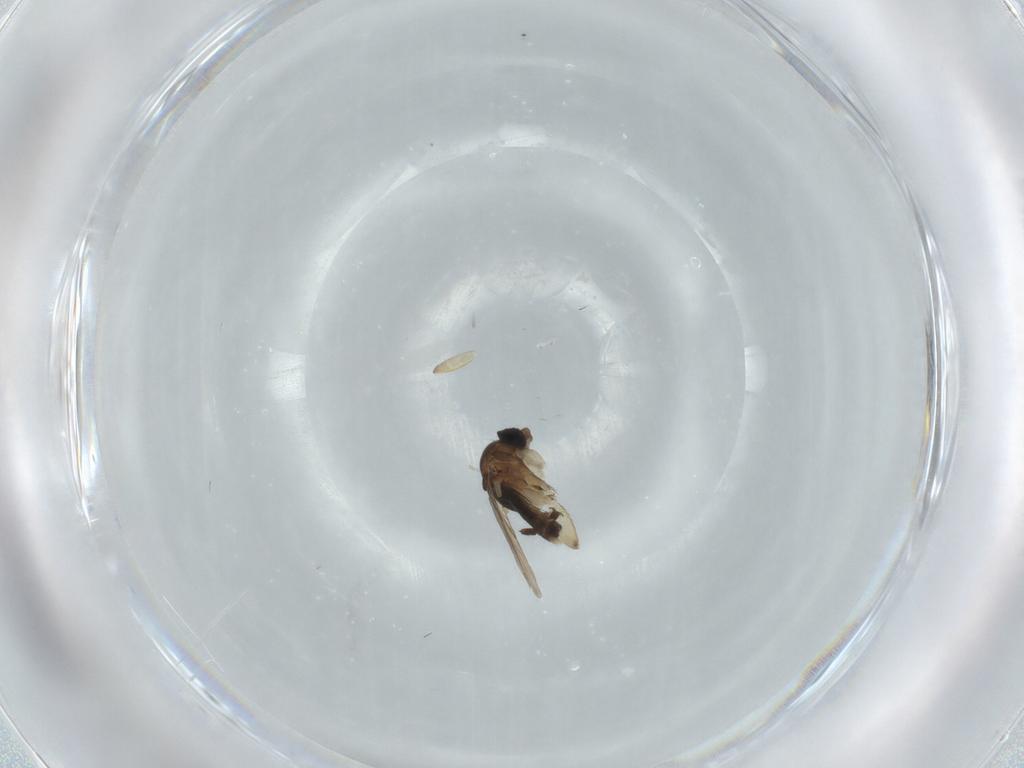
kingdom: Animalia
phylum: Arthropoda
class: Insecta
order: Diptera
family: Phoridae
